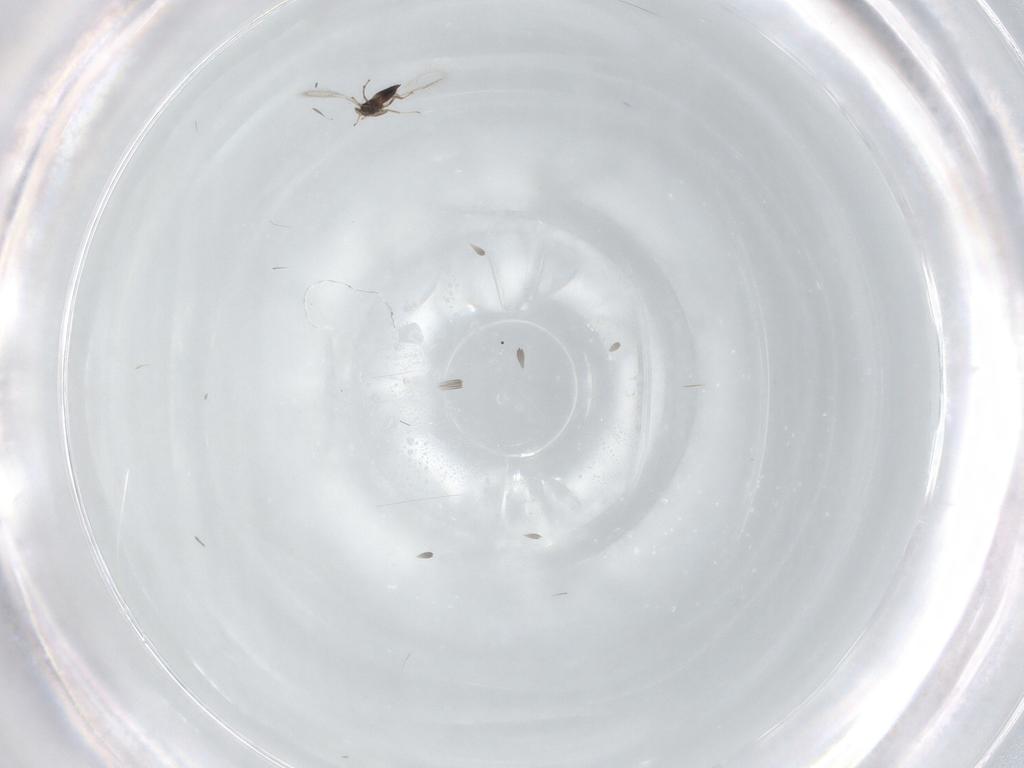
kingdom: Animalia
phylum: Arthropoda
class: Insecta
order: Hymenoptera
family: Mymaridae
